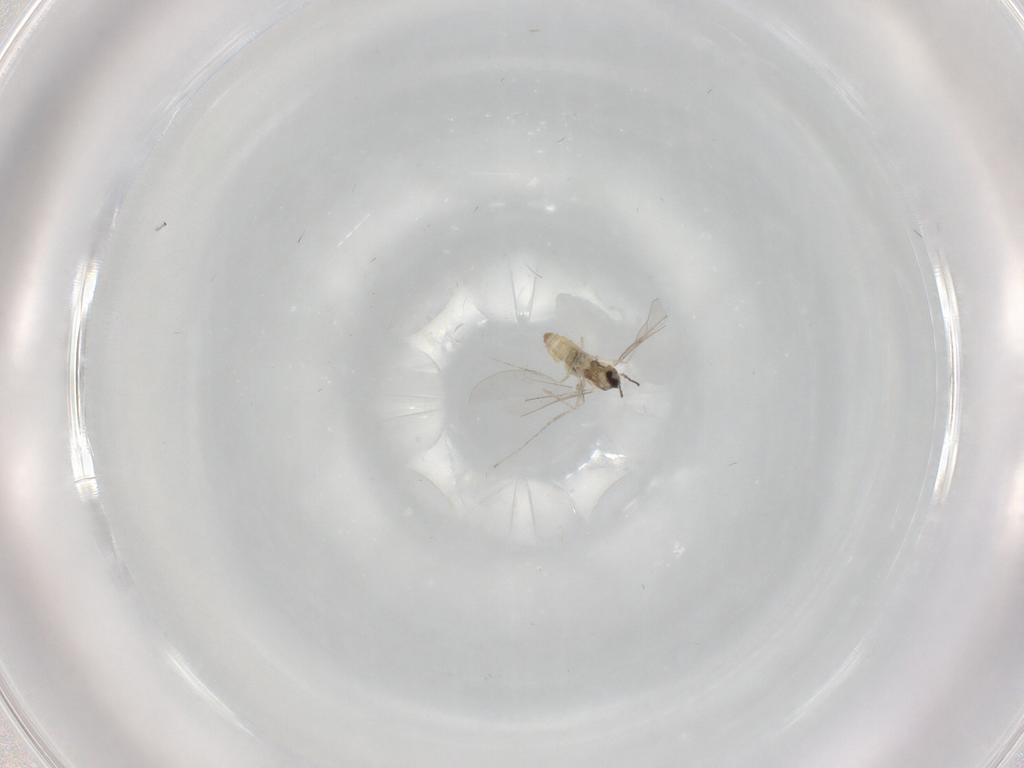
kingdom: Animalia
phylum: Arthropoda
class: Insecta
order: Diptera
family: Cecidomyiidae
